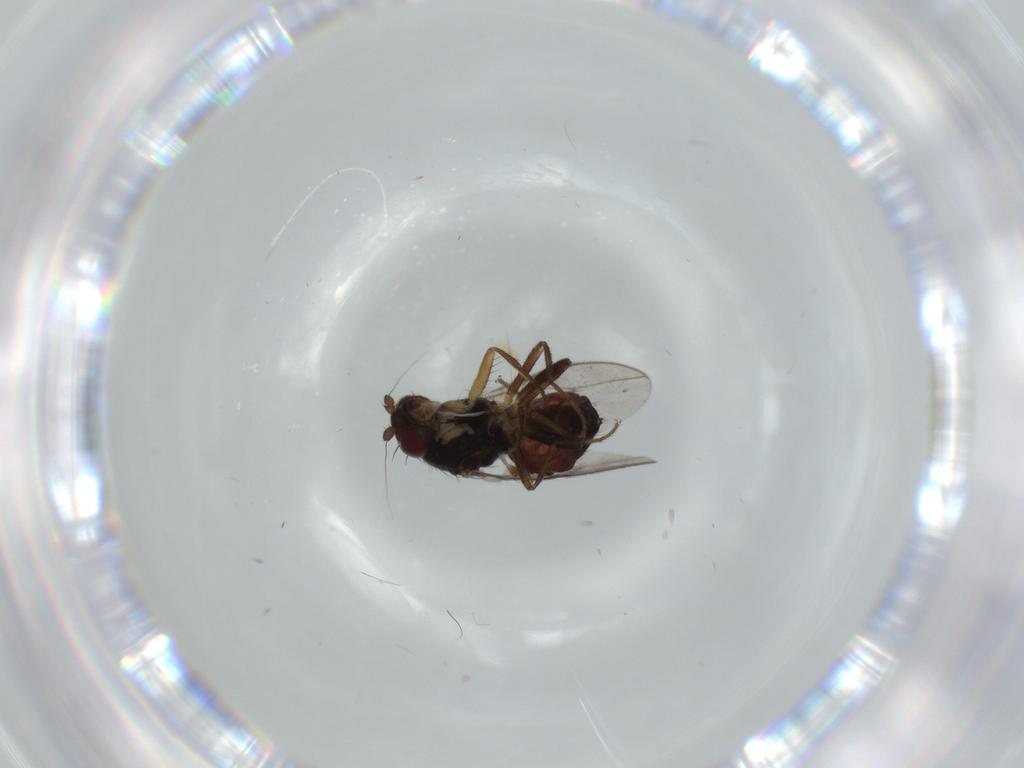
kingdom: Animalia
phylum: Arthropoda
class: Insecta
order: Diptera
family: Sphaeroceridae
